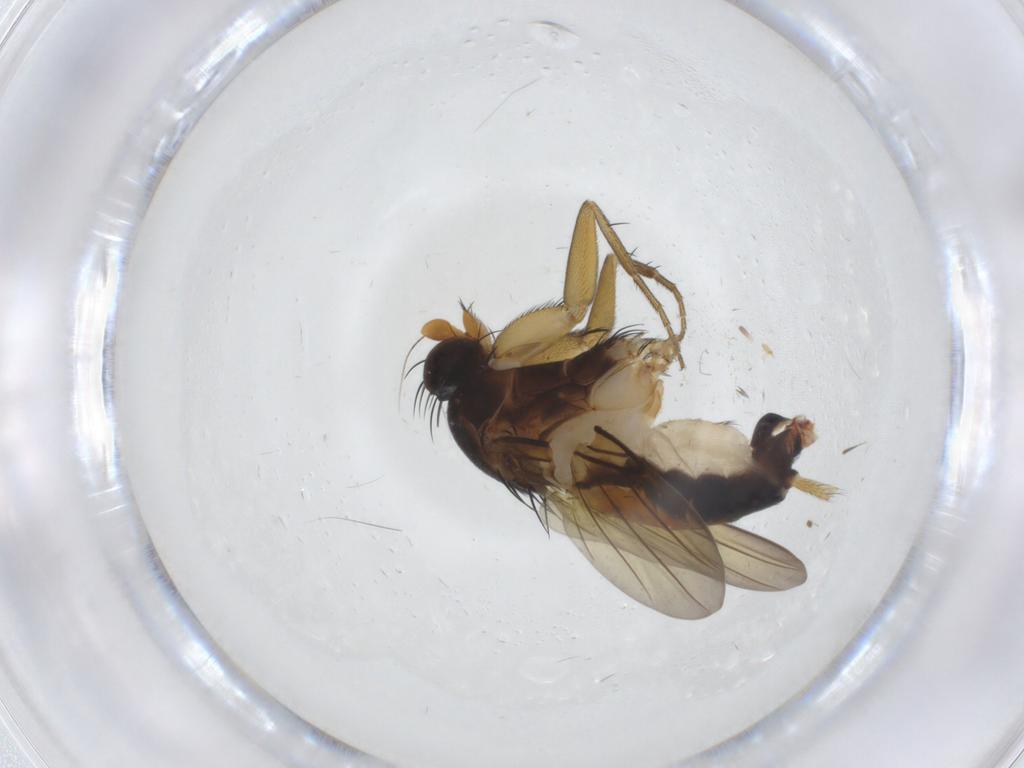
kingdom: Animalia
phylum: Arthropoda
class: Insecta
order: Diptera
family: Phoridae
